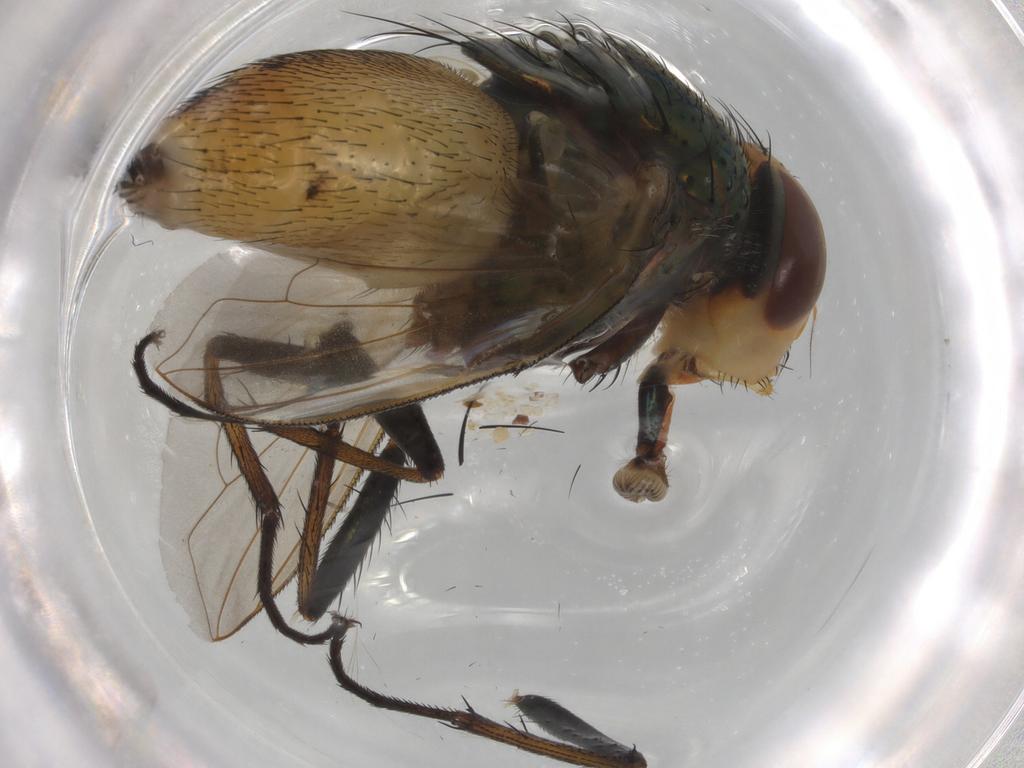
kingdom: Animalia
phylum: Arthropoda
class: Insecta
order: Diptera
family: Calliphoridae
